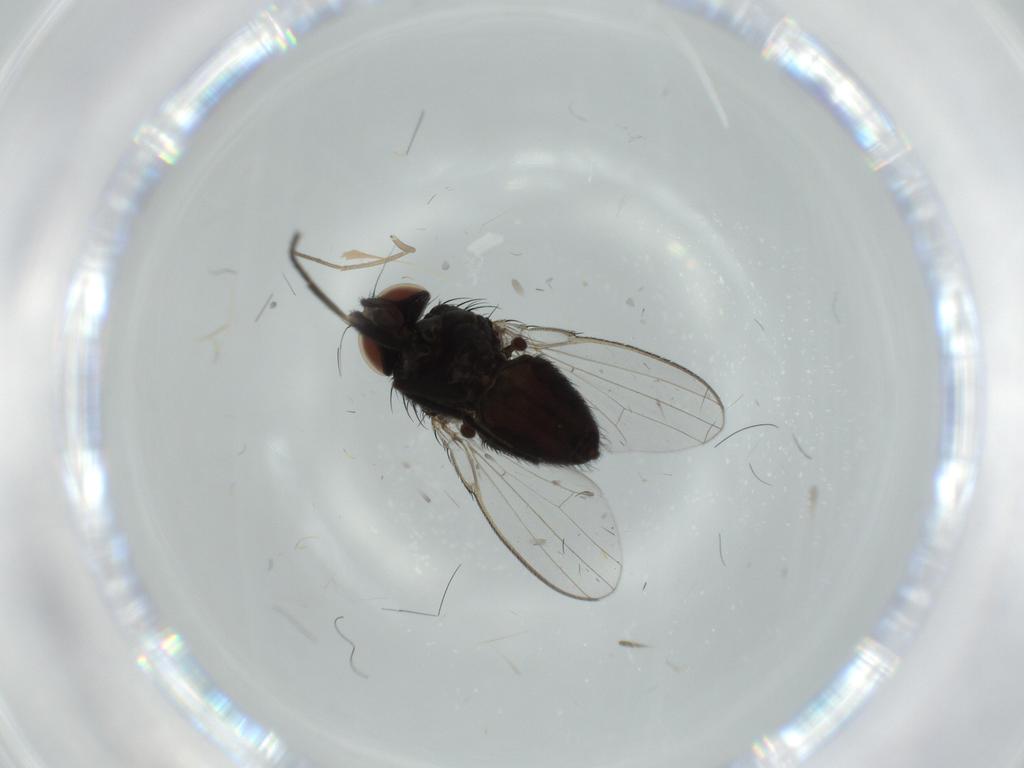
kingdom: Animalia
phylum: Arthropoda
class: Insecta
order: Diptera
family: Milichiidae
